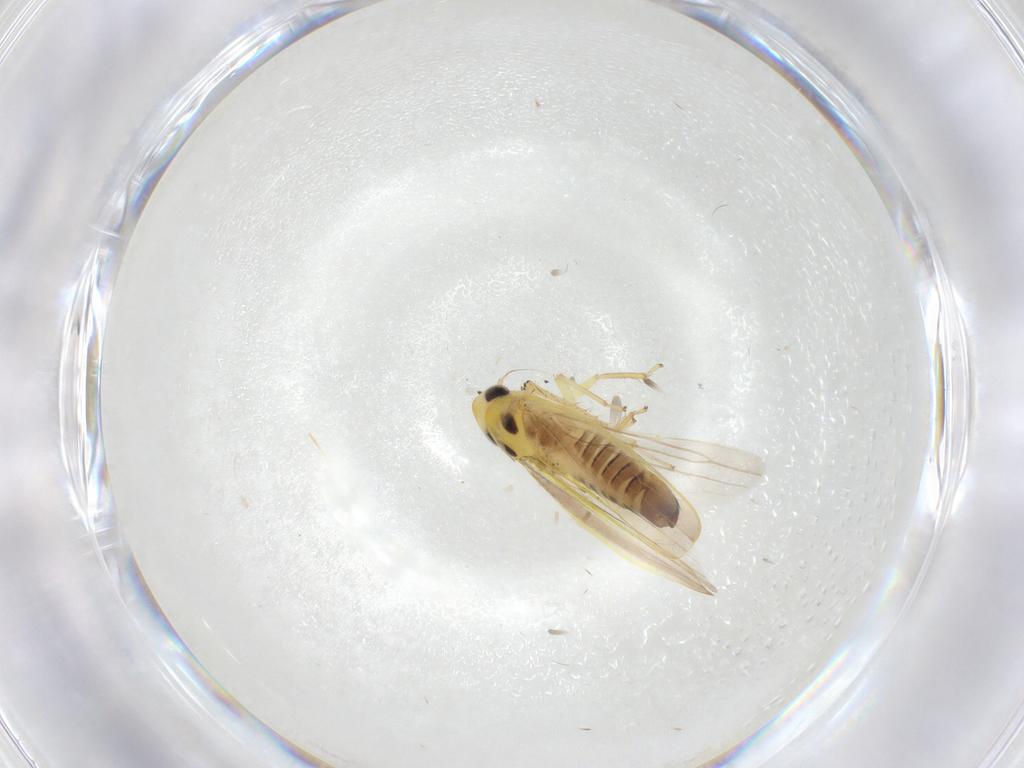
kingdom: Animalia
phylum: Arthropoda
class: Insecta
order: Hemiptera
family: Cicadellidae
